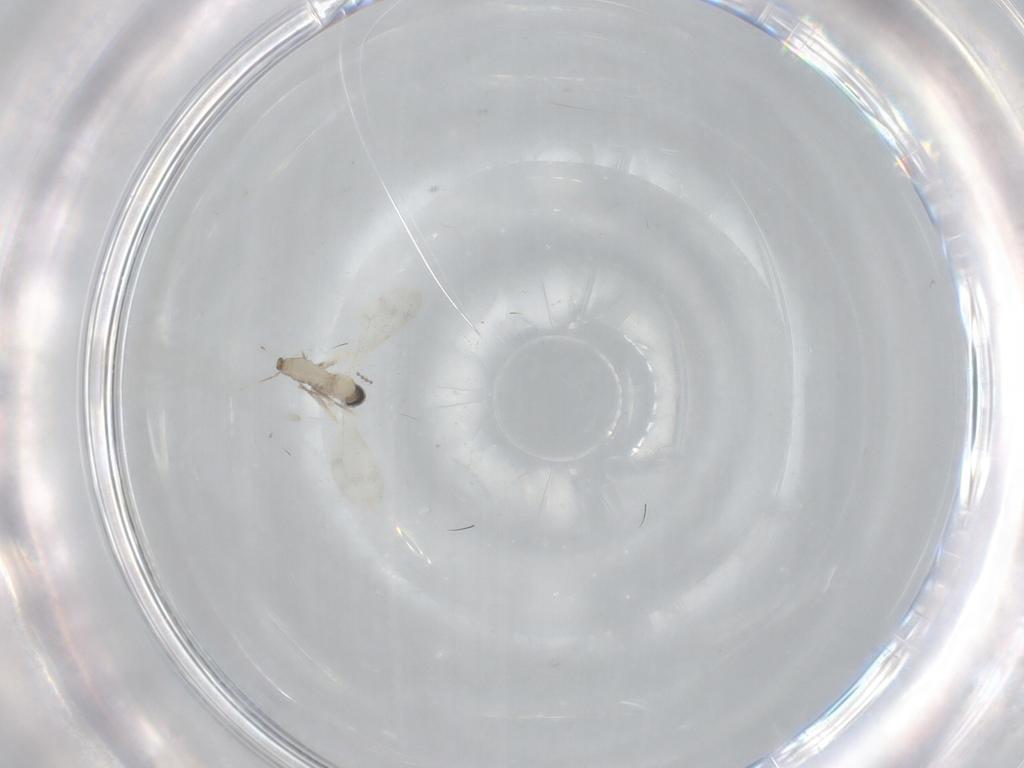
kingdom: Animalia
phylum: Arthropoda
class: Insecta
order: Diptera
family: Cecidomyiidae
